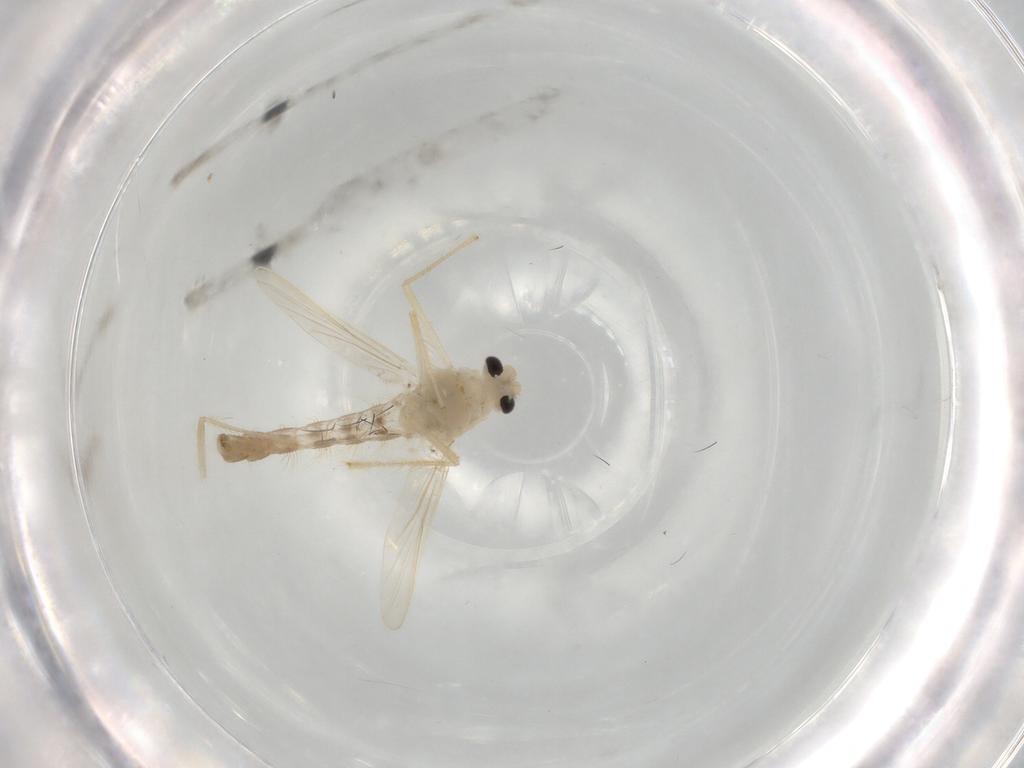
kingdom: Animalia
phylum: Arthropoda
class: Insecta
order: Diptera
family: Chironomidae
